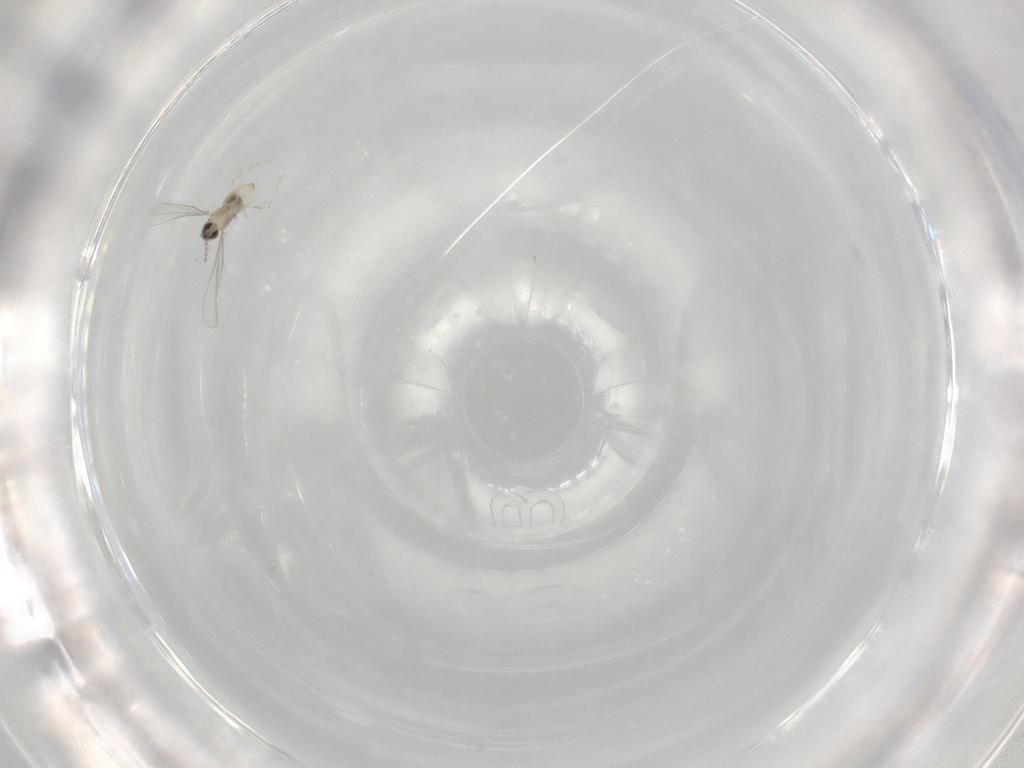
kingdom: Animalia
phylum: Arthropoda
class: Insecta
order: Diptera
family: Cecidomyiidae
